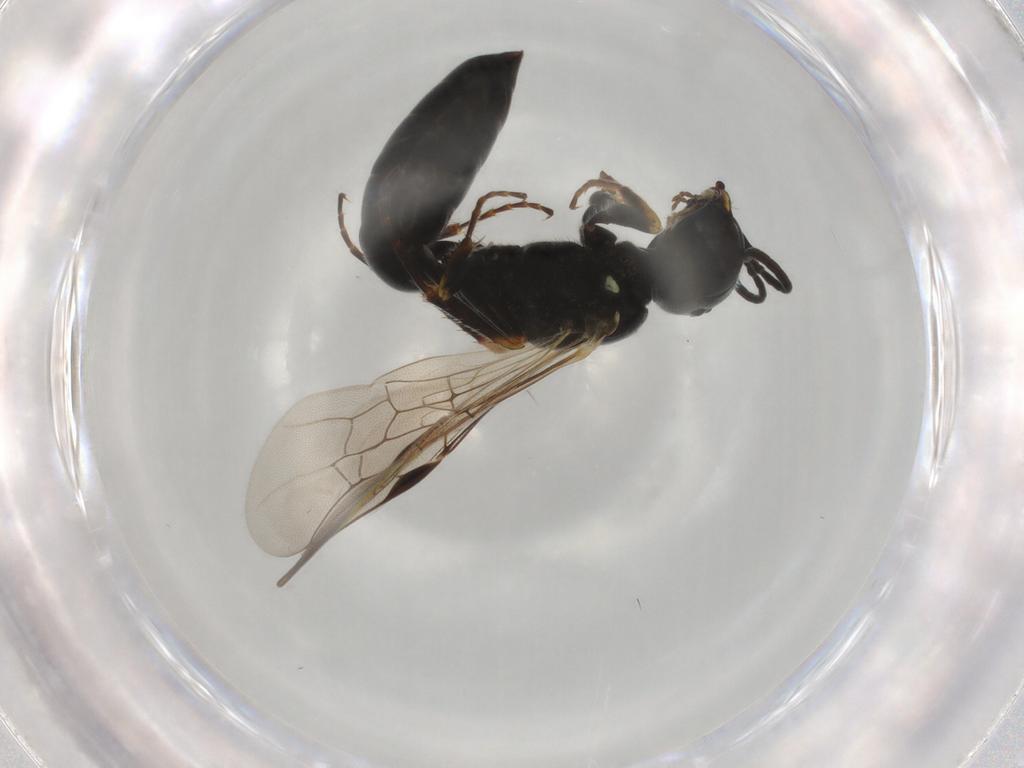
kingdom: Animalia
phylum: Arthropoda
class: Insecta
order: Hymenoptera
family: Crabronidae
